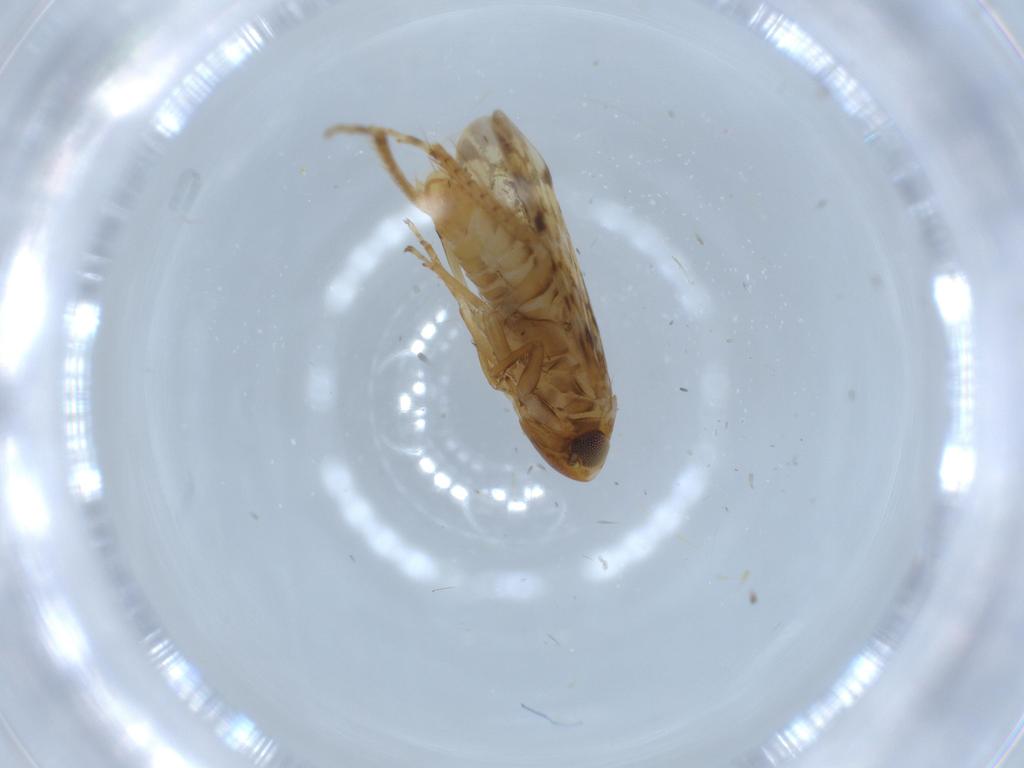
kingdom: Animalia
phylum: Arthropoda
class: Insecta
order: Hemiptera
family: Cicadellidae
